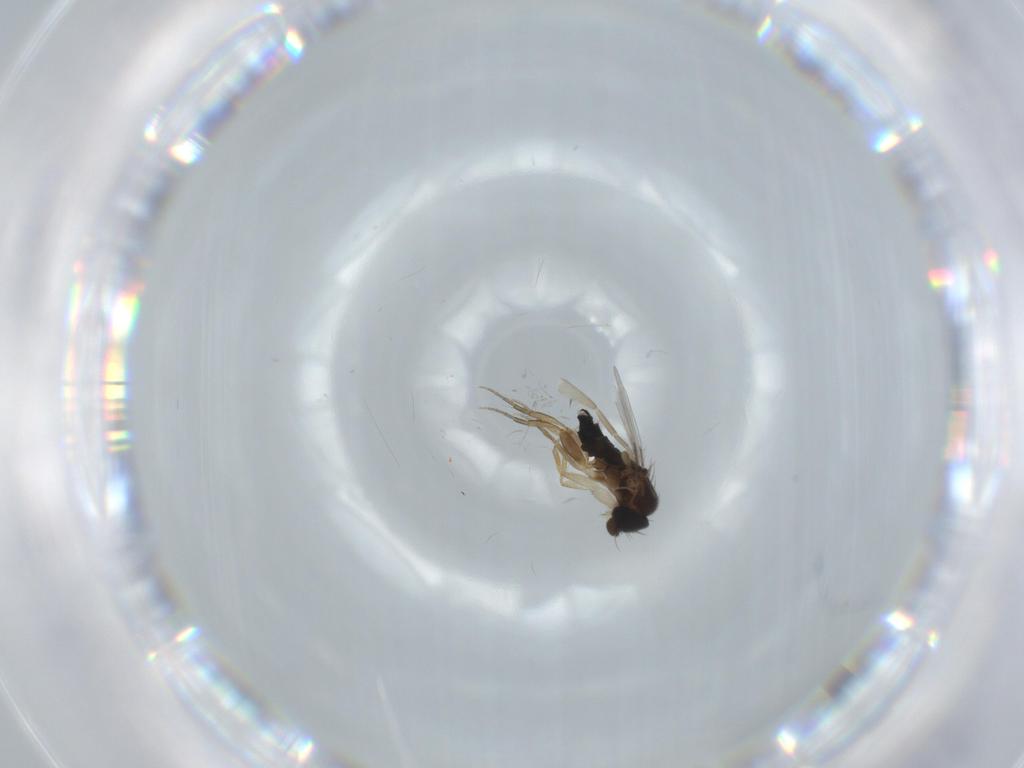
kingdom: Animalia
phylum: Arthropoda
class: Insecta
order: Diptera
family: Phoridae
